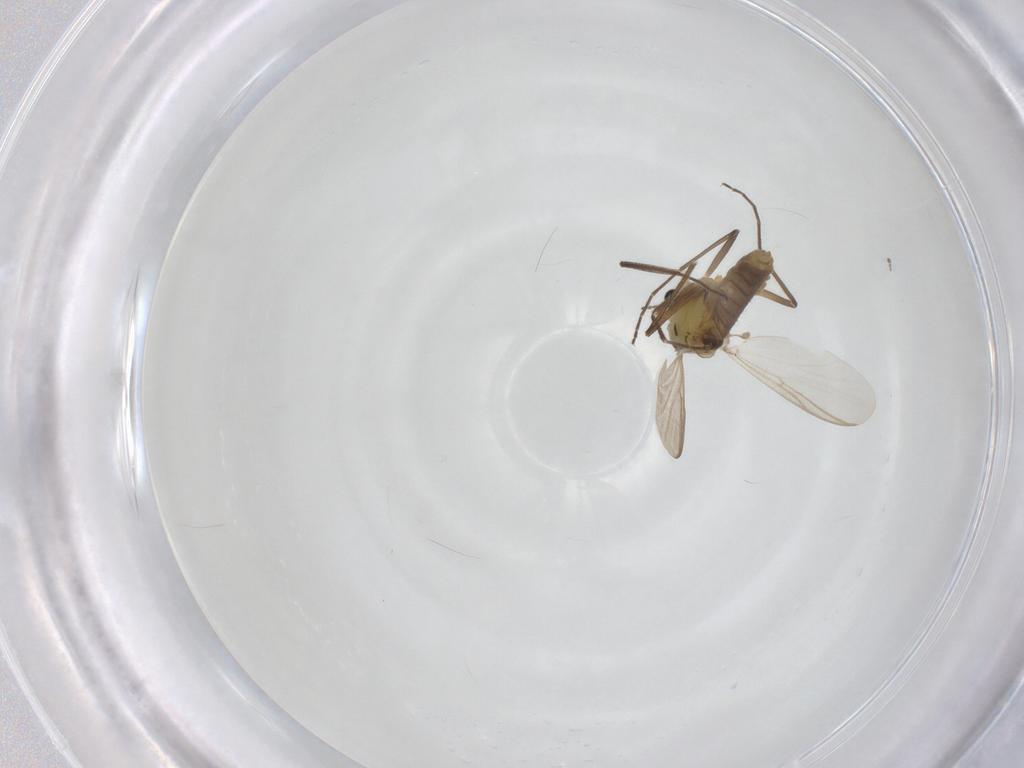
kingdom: Animalia
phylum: Arthropoda
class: Insecta
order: Diptera
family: Chironomidae
